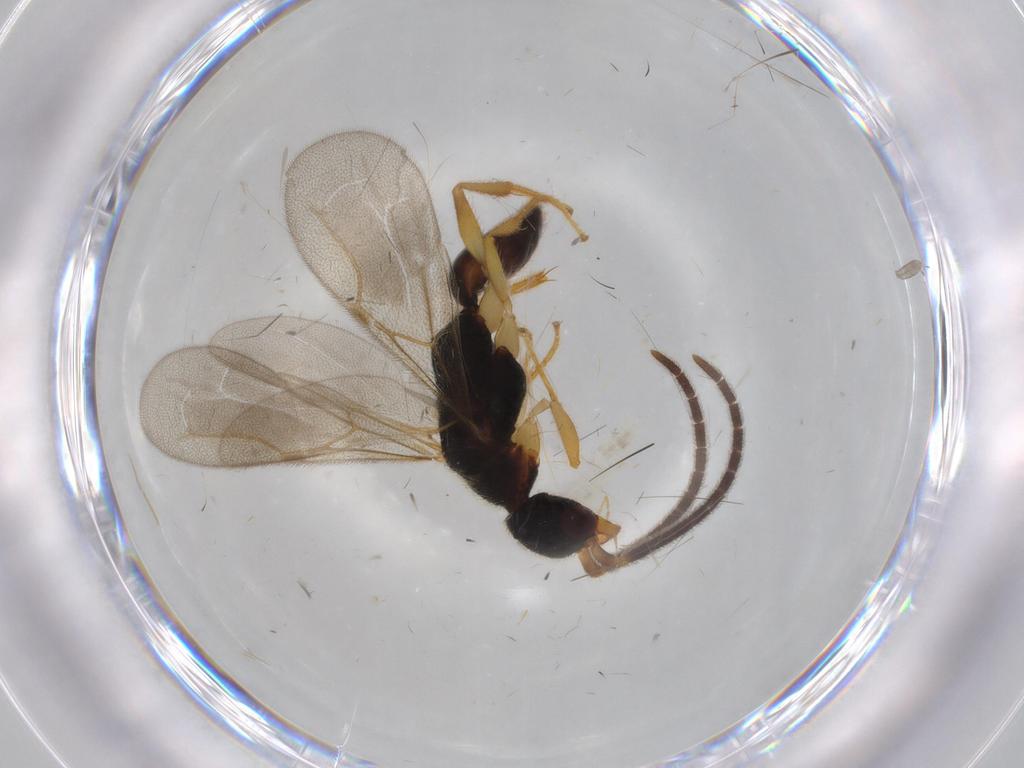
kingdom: Animalia
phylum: Arthropoda
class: Insecta
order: Hymenoptera
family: Bethylidae
